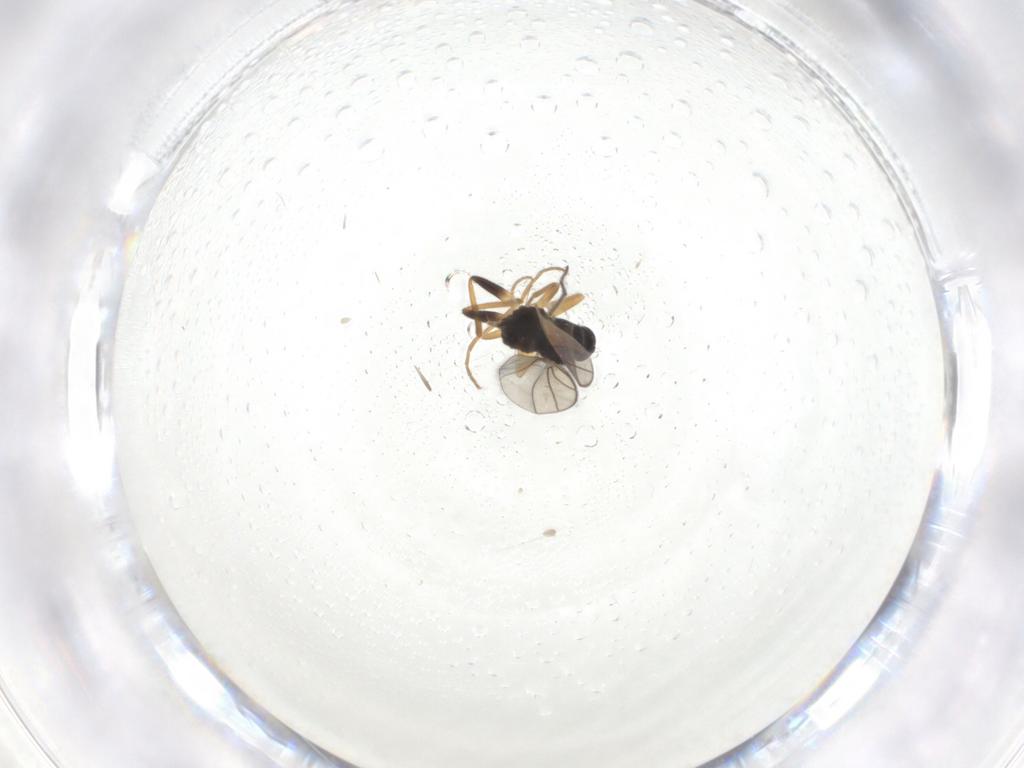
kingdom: Animalia
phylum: Arthropoda
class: Insecta
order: Diptera
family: Hybotidae
